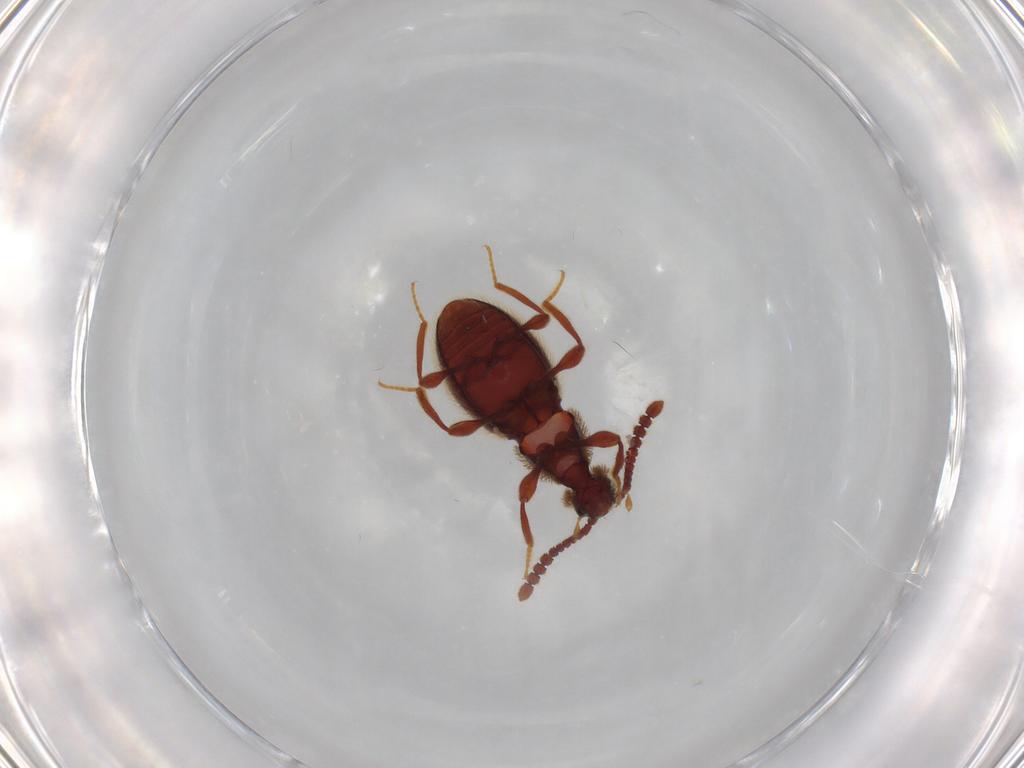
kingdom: Animalia
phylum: Arthropoda
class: Insecta
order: Coleoptera
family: Staphylinidae
